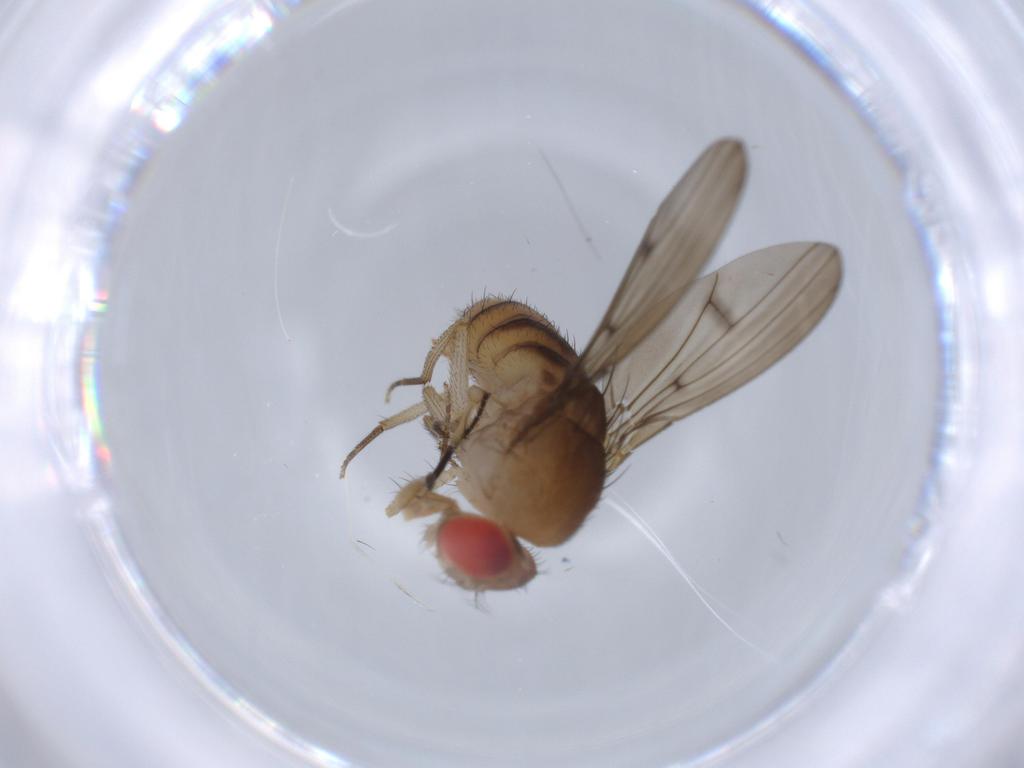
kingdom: Animalia
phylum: Arthropoda
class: Insecta
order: Diptera
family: Drosophilidae
